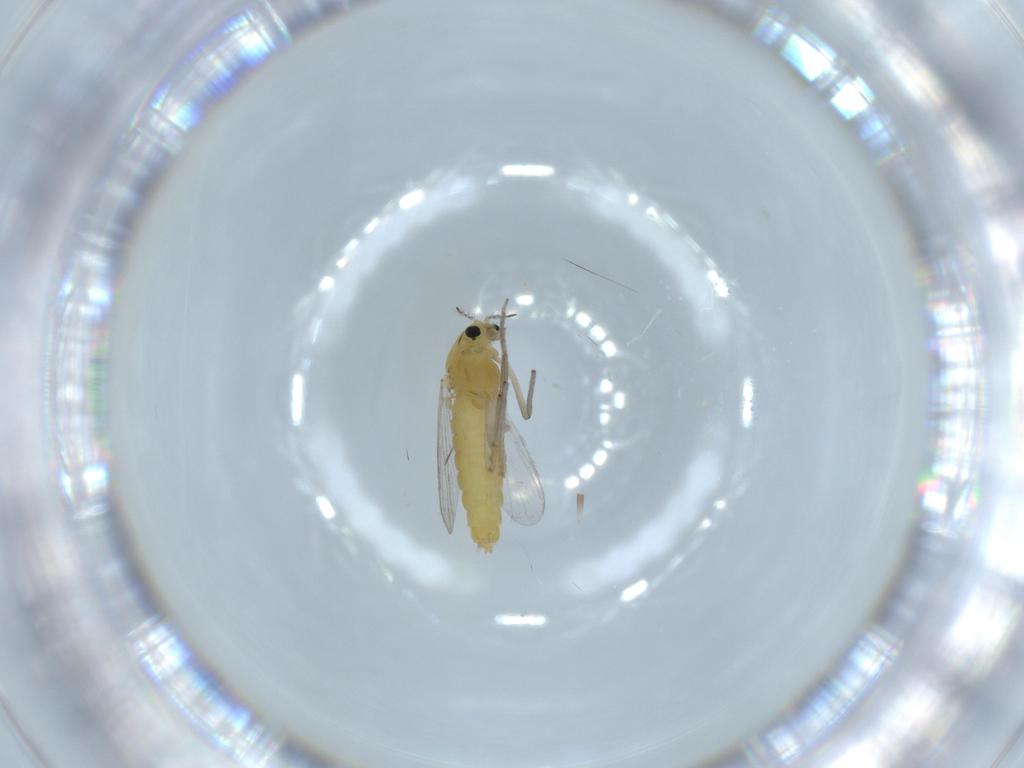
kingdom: Animalia
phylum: Arthropoda
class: Insecta
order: Diptera
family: Chironomidae
